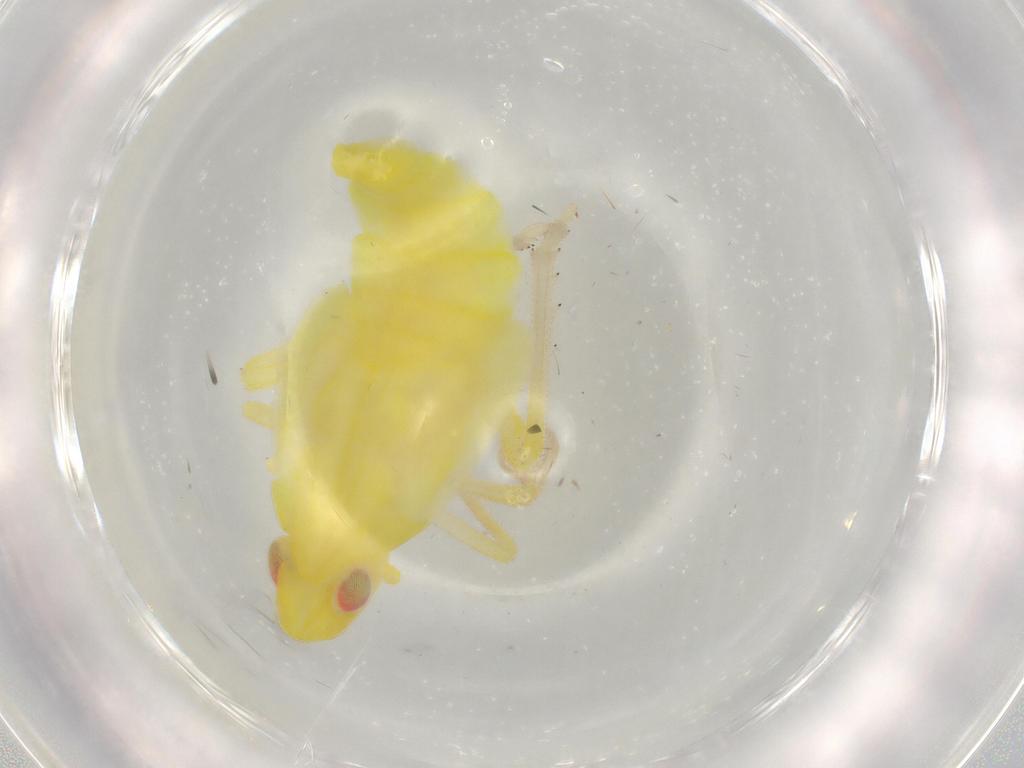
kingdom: Animalia
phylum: Arthropoda
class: Insecta
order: Hemiptera
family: Tropiduchidae
